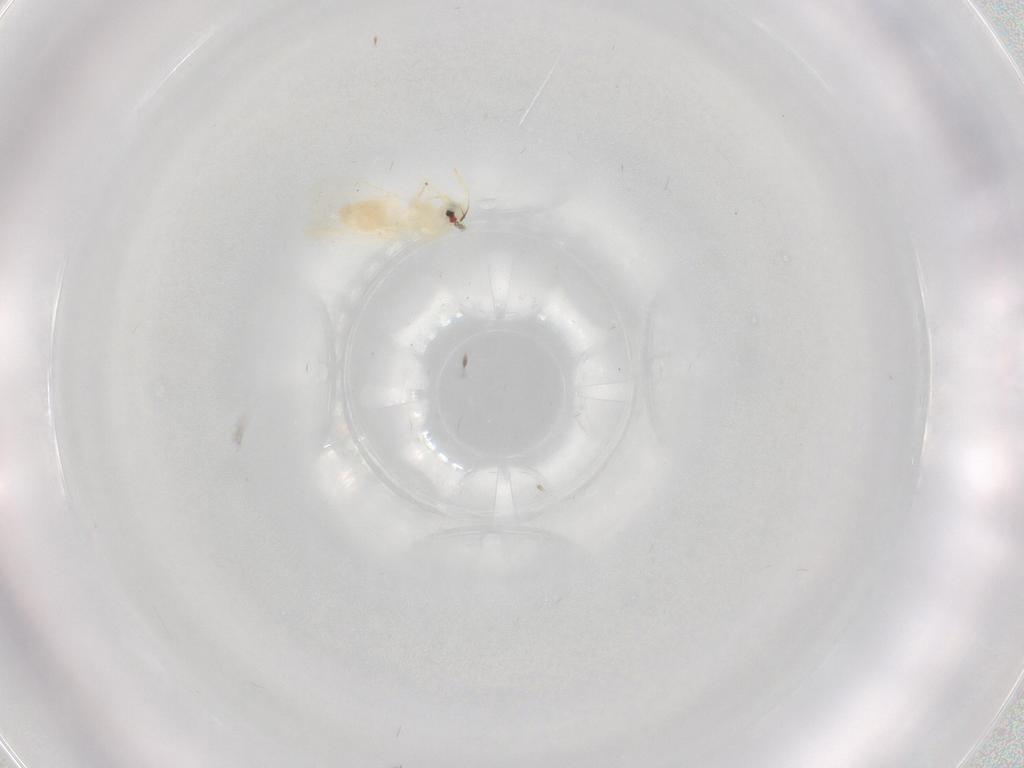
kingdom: Animalia
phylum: Arthropoda
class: Insecta
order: Hemiptera
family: Aleyrodidae
